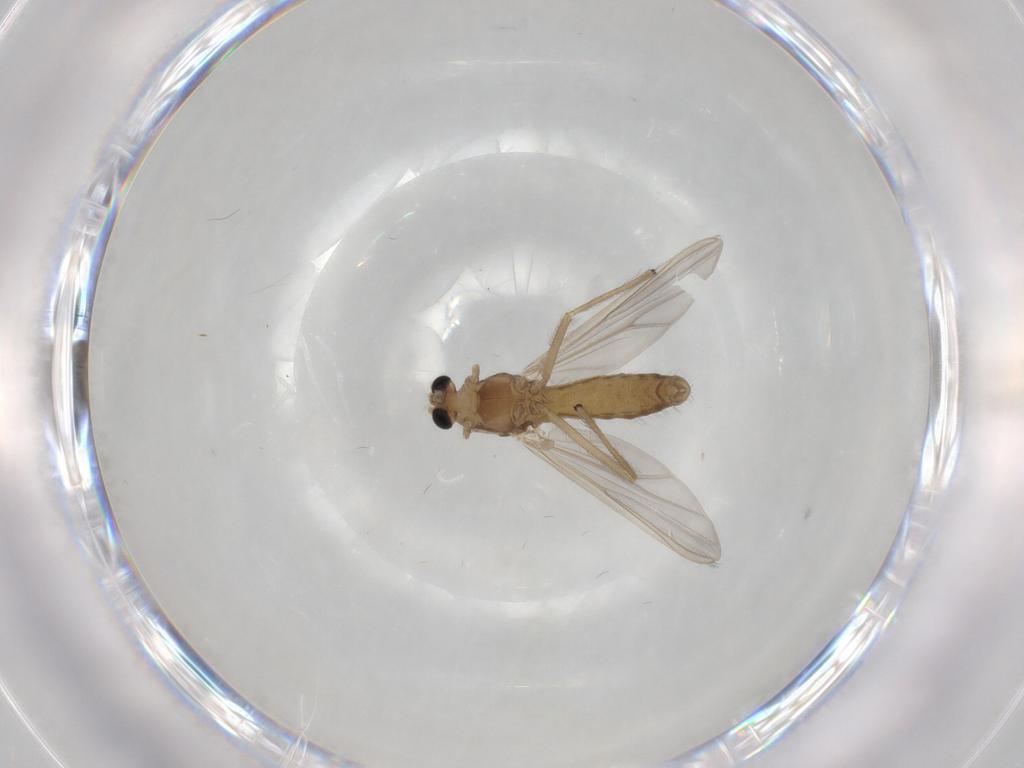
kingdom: Animalia
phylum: Arthropoda
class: Insecta
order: Diptera
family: Chironomidae
